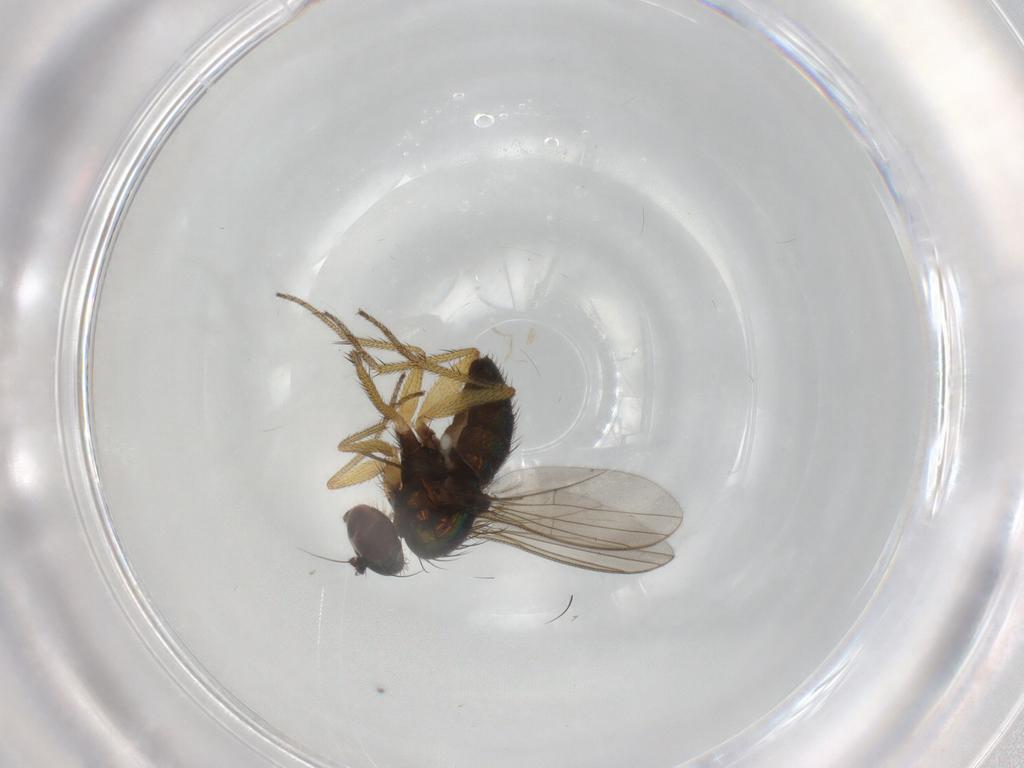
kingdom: Animalia
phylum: Arthropoda
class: Insecta
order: Diptera
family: Chironomidae
